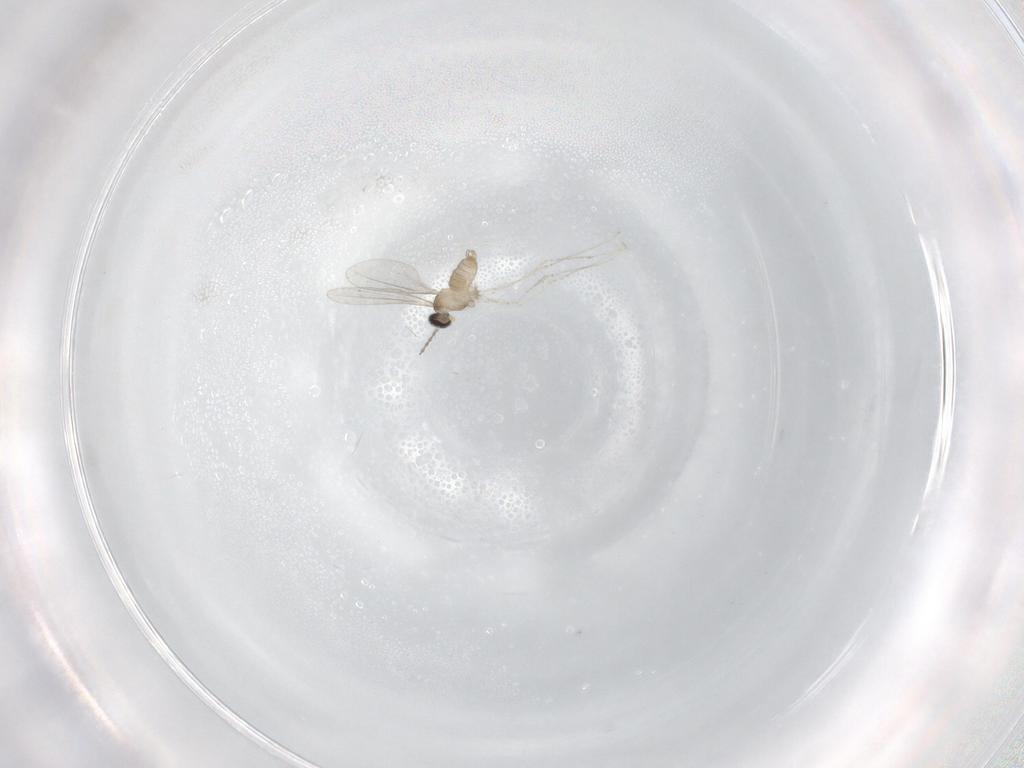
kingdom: Animalia
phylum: Arthropoda
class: Insecta
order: Diptera
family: Cecidomyiidae
